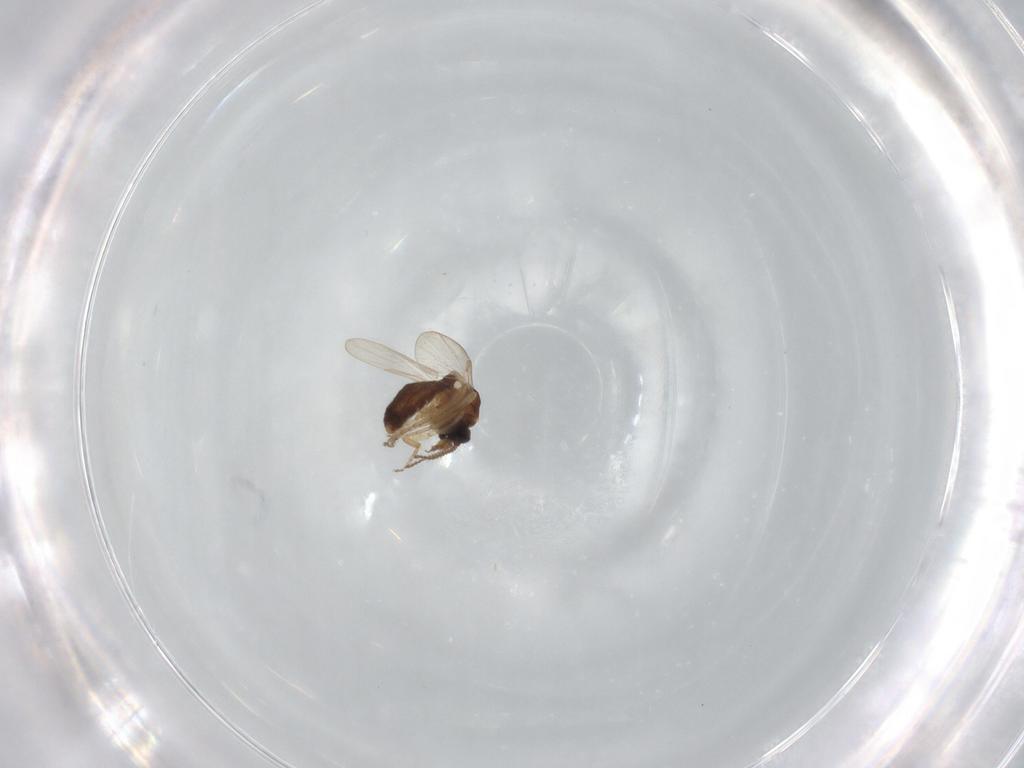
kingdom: Animalia
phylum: Arthropoda
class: Insecta
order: Diptera
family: Ceratopogonidae
